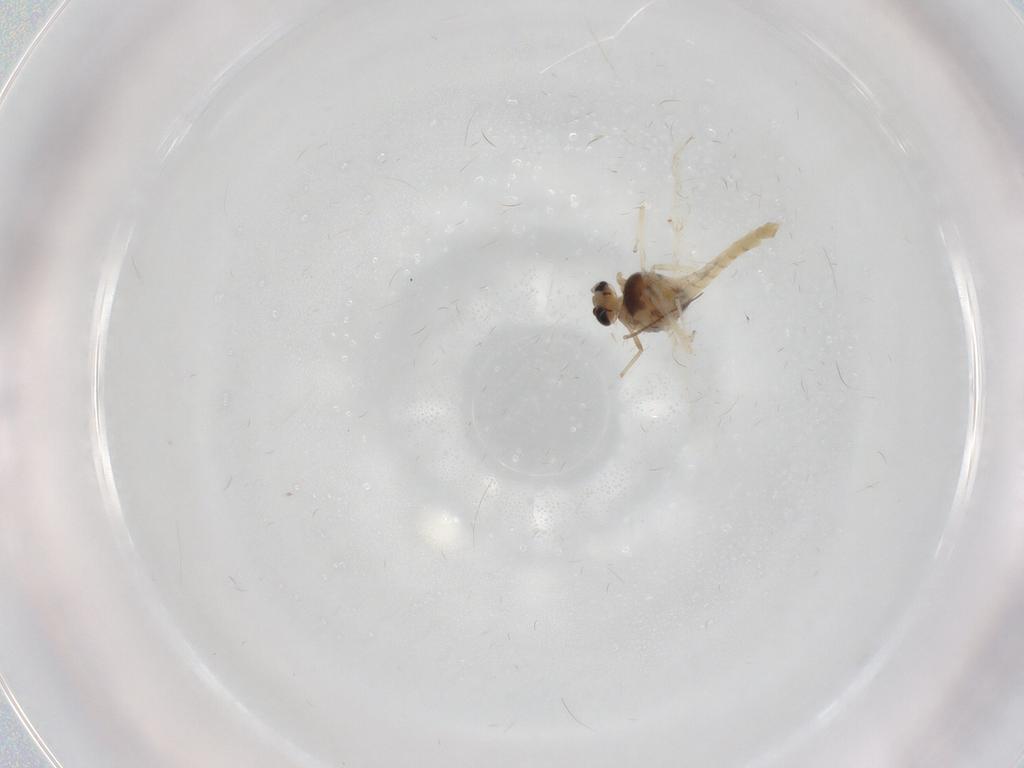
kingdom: Animalia
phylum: Arthropoda
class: Insecta
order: Diptera
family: Chironomidae
